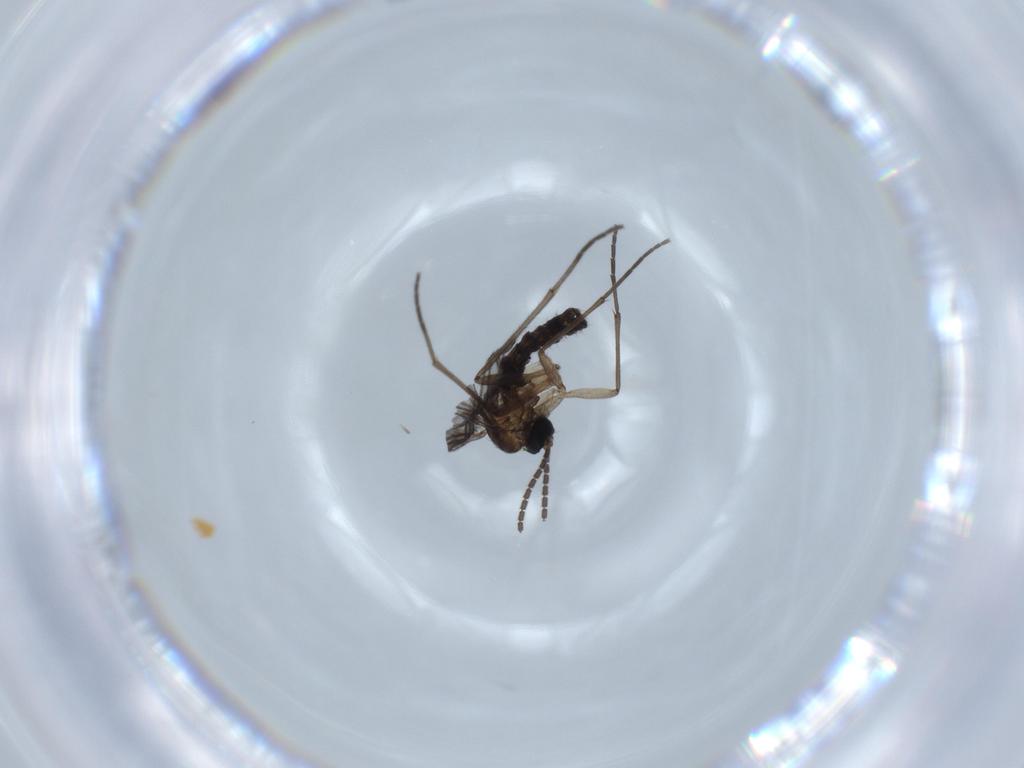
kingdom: Animalia
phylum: Arthropoda
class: Insecta
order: Diptera
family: Sciaridae
